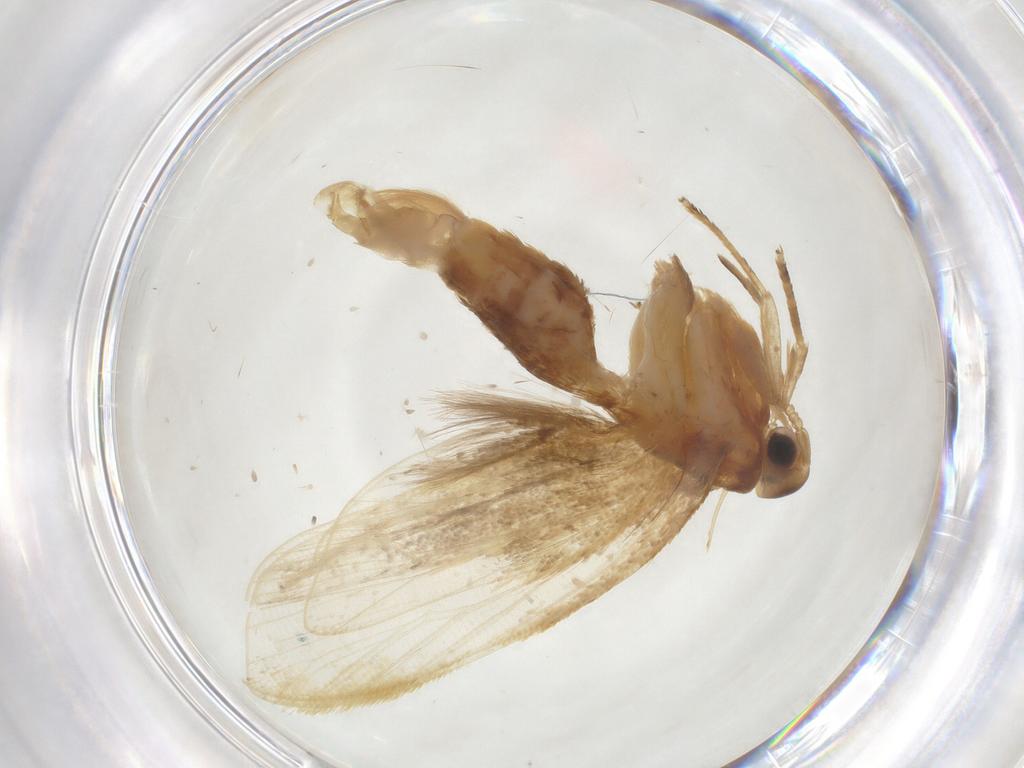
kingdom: Animalia
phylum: Arthropoda
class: Insecta
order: Lepidoptera
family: Lecithoceridae
